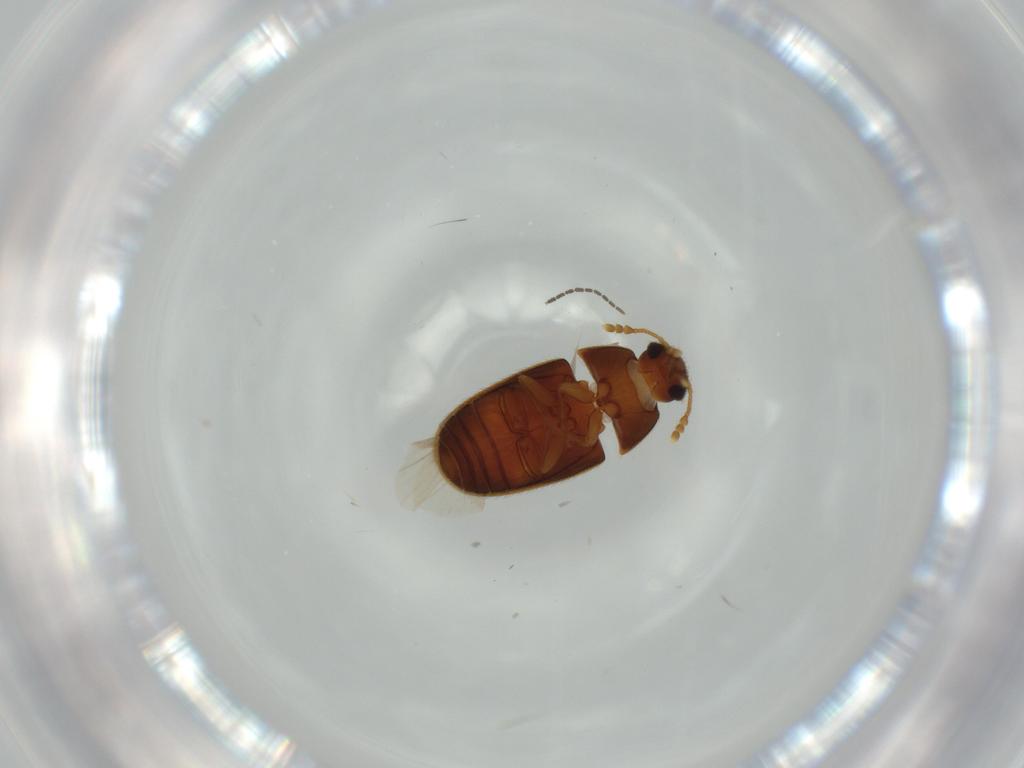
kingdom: Animalia
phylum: Arthropoda
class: Insecta
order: Coleoptera
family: Mycetophagidae
